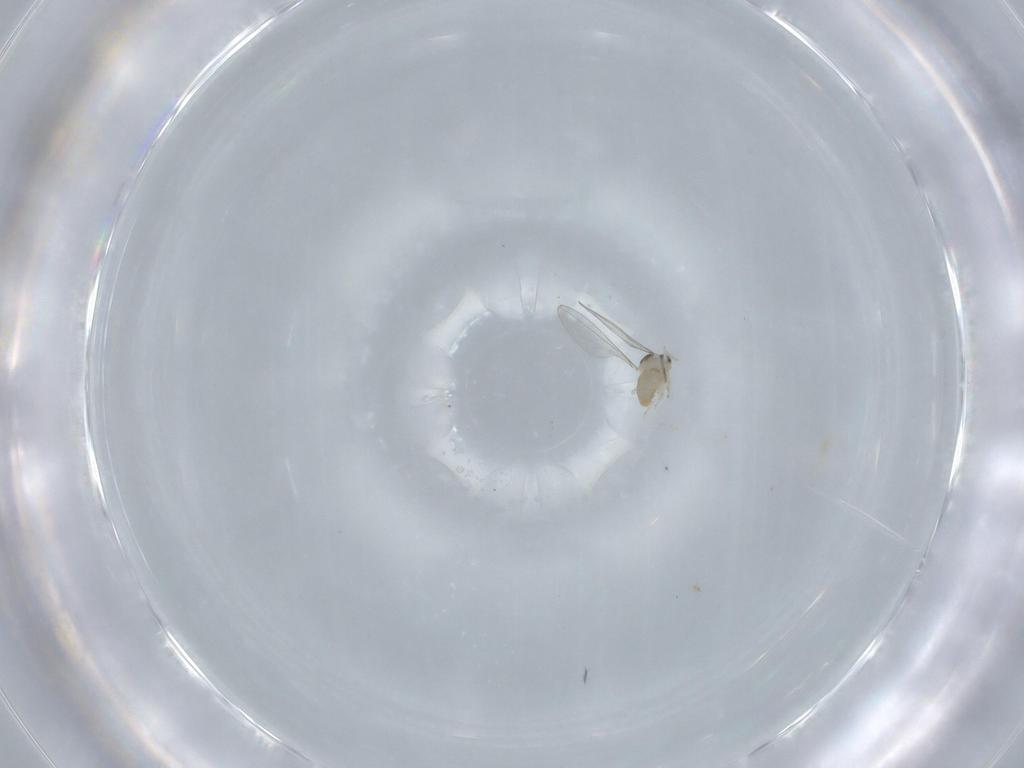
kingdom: Animalia
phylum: Arthropoda
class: Insecta
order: Diptera
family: Cecidomyiidae
